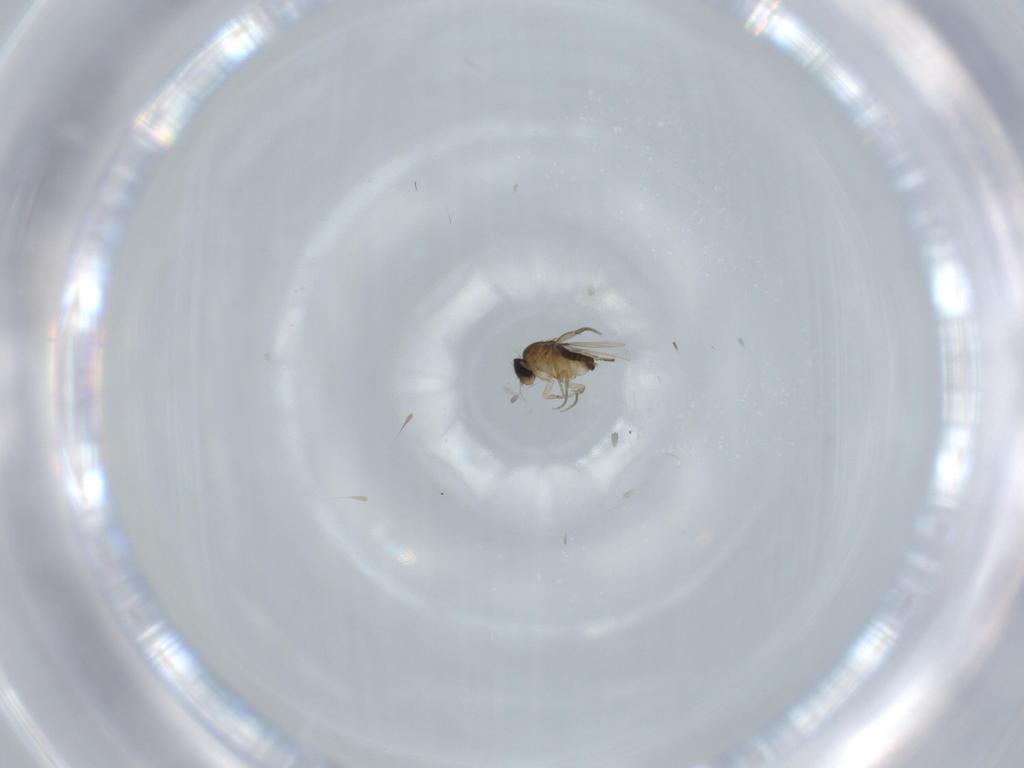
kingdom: Animalia
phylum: Arthropoda
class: Insecta
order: Diptera
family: Phoridae
